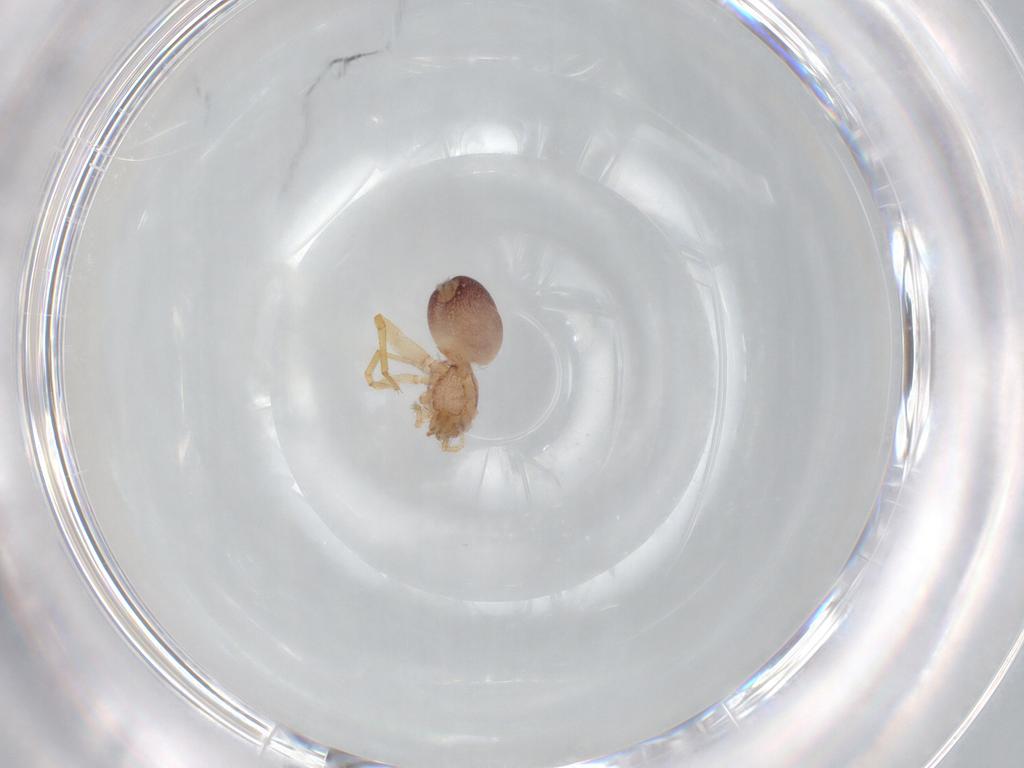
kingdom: Animalia
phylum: Arthropoda
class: Arachnida
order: Araneae
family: Idiopidae
